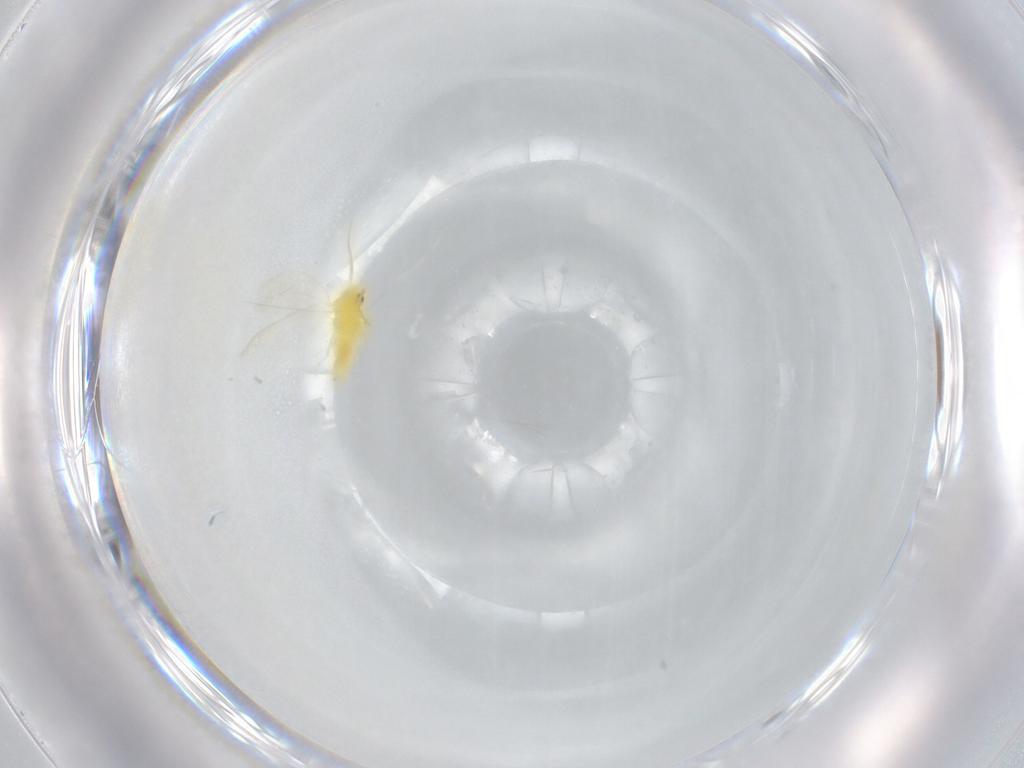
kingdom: Animalia
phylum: Arthropoda
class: Insecta
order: Hemiptera
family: Aleyrodidae
